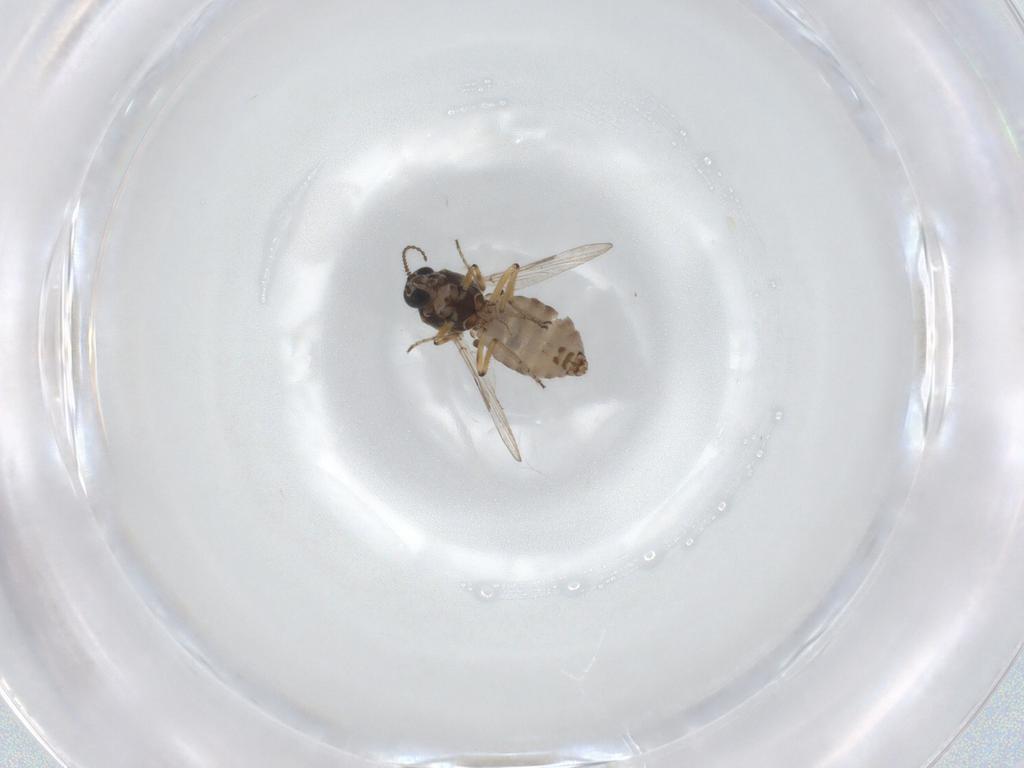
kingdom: Animalia
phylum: Arthropoda
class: Insecta
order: Diptera
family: Ceratopogonidae
